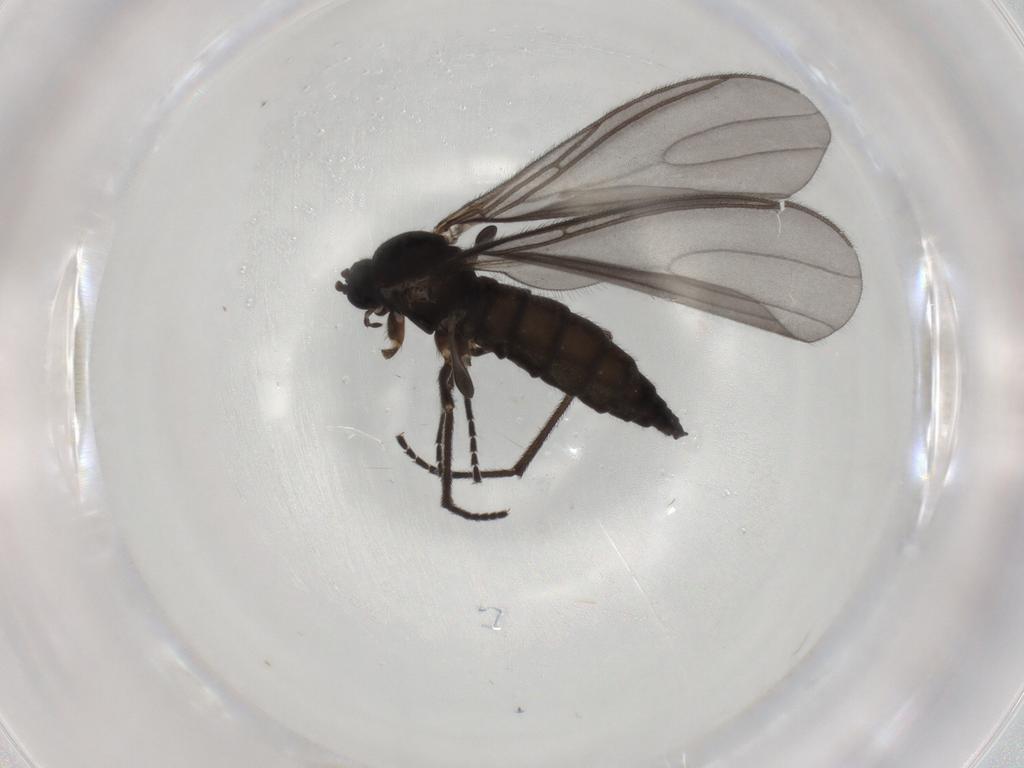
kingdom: Animalia
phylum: Arthropoda
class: Insecta
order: Diptera
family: Sciaridae
